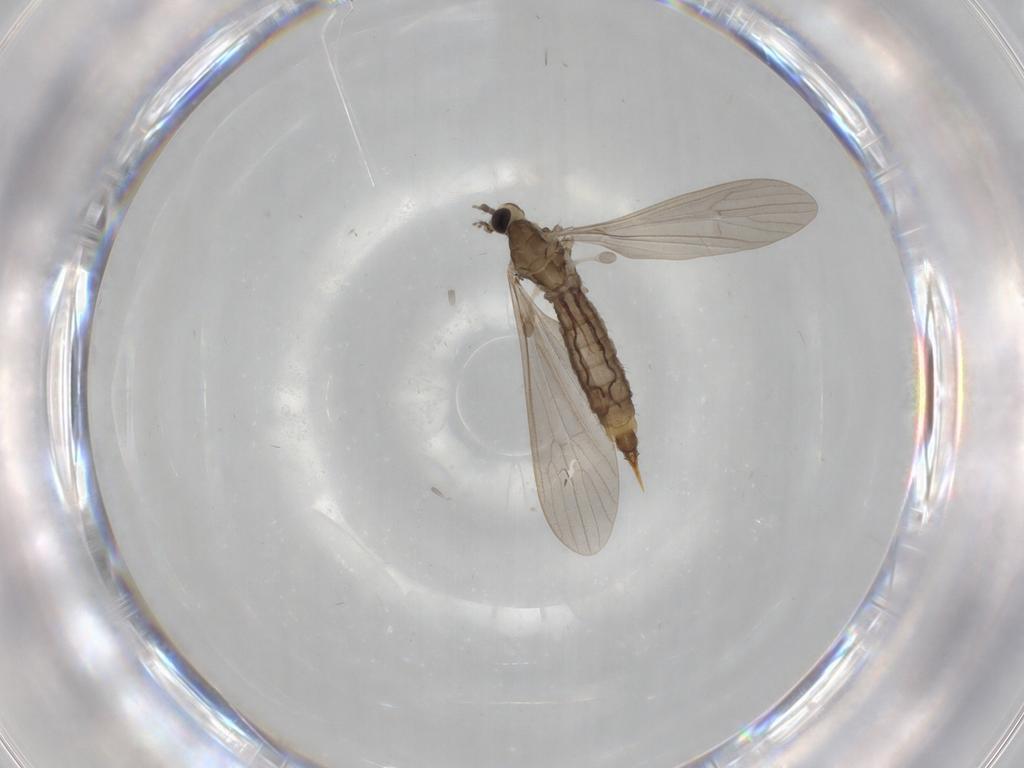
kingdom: Animalia
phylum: Arthropoda
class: Insecta
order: Diptera
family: Limoniidae
